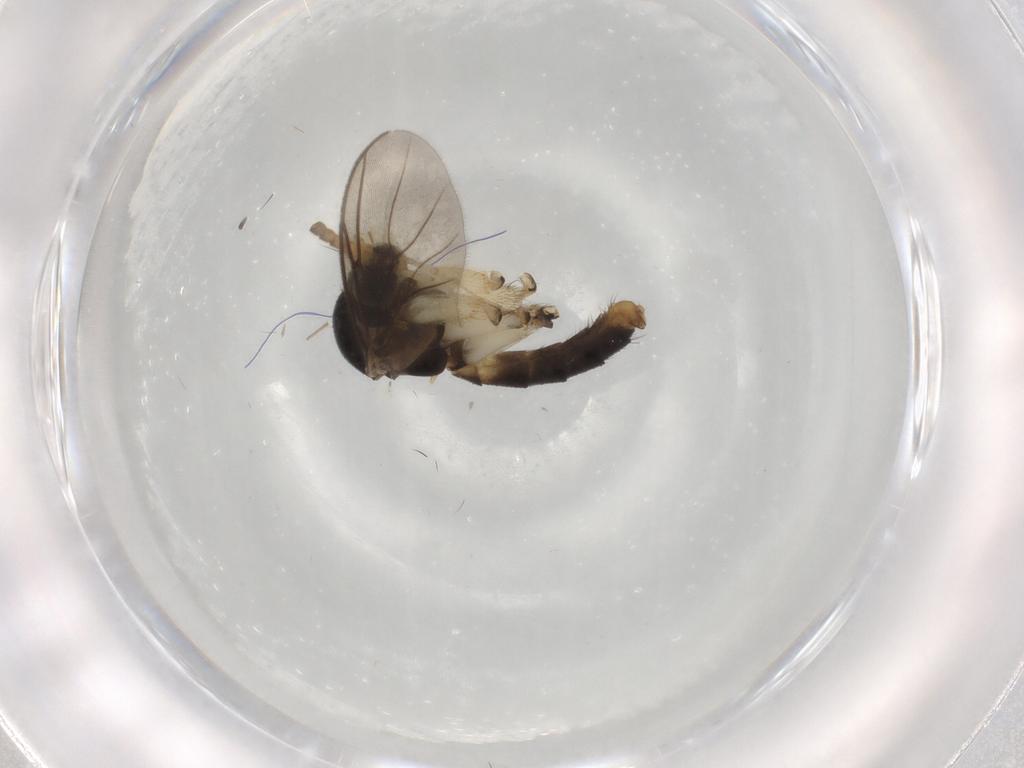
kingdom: Animalia
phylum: Arthropoda
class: Insecta
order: Diptera
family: Cecidomyiidae
